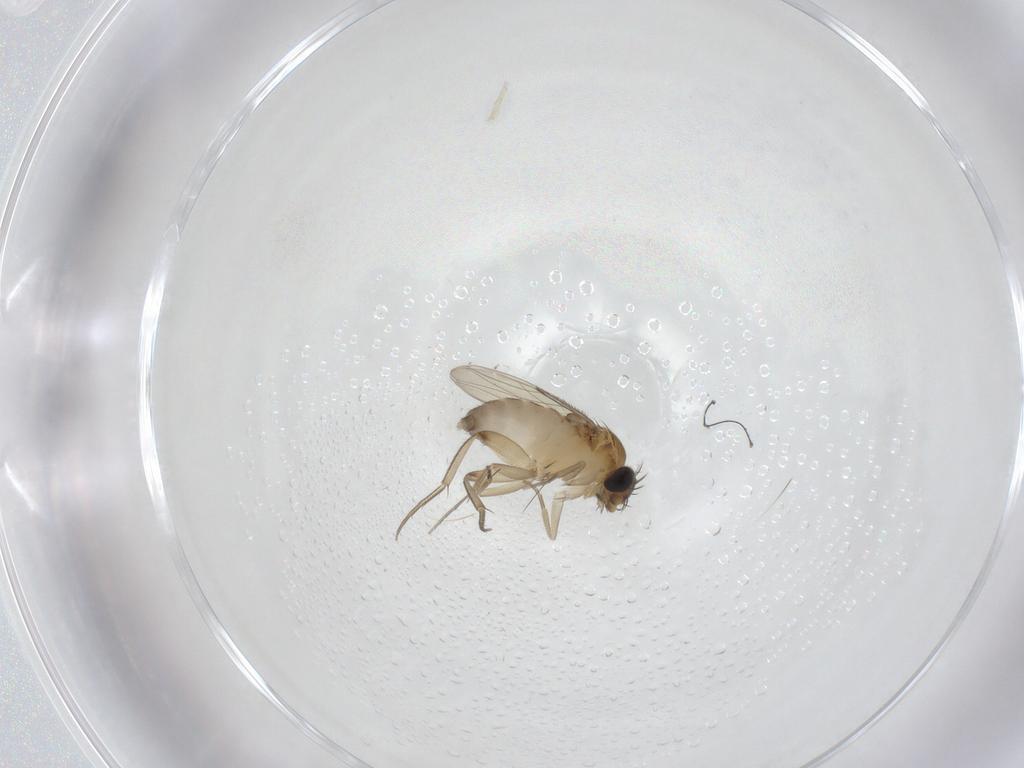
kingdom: Animalia
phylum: Arthropoda
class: Insecta
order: Diptera
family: Phoridae
